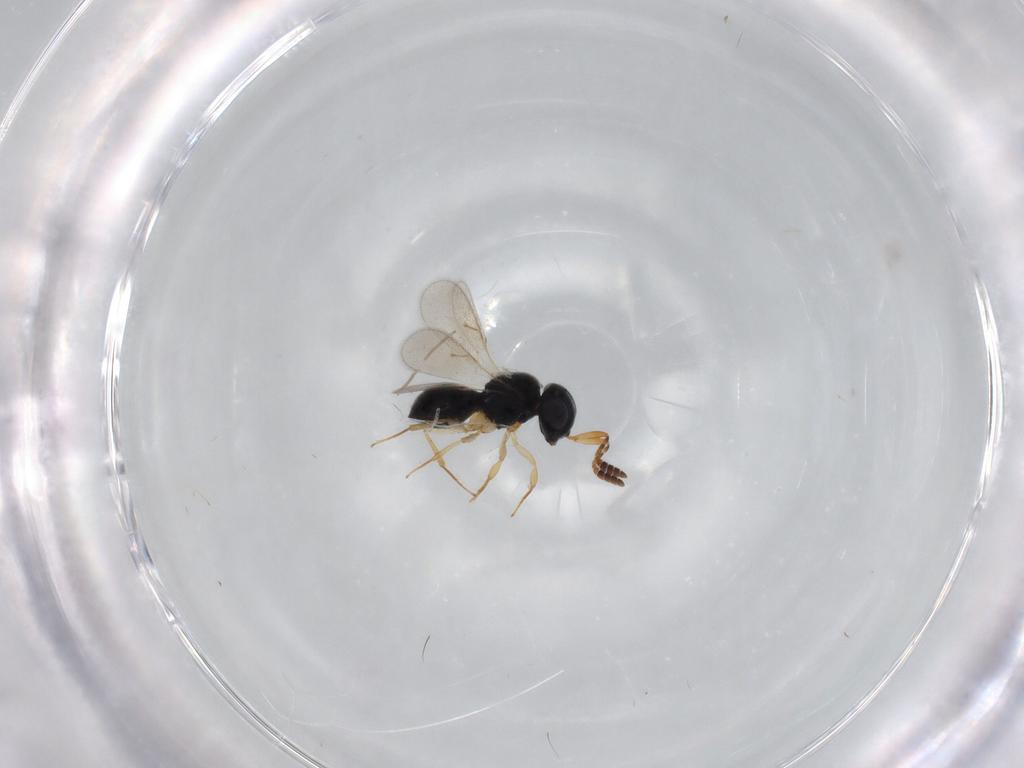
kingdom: Animalia
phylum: Arthropoda
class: Insecta
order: Hymenoptera
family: Scelionidae
